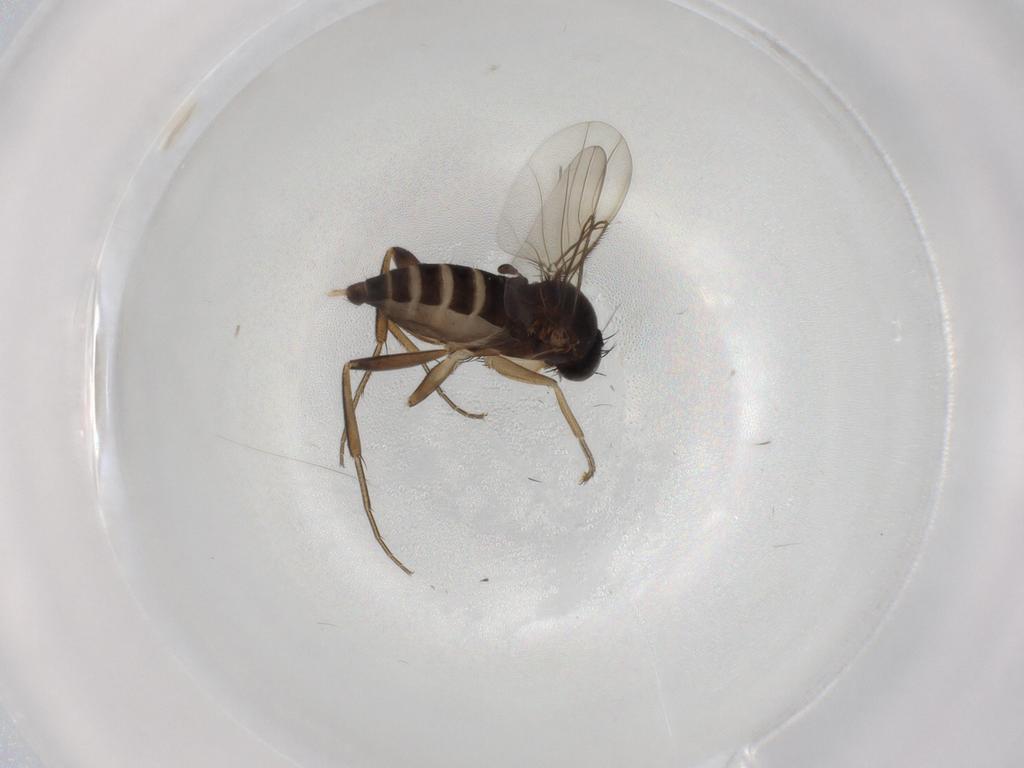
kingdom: Animalia
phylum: Arthropoda
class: Insecta
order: Diptera
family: Phoridae
